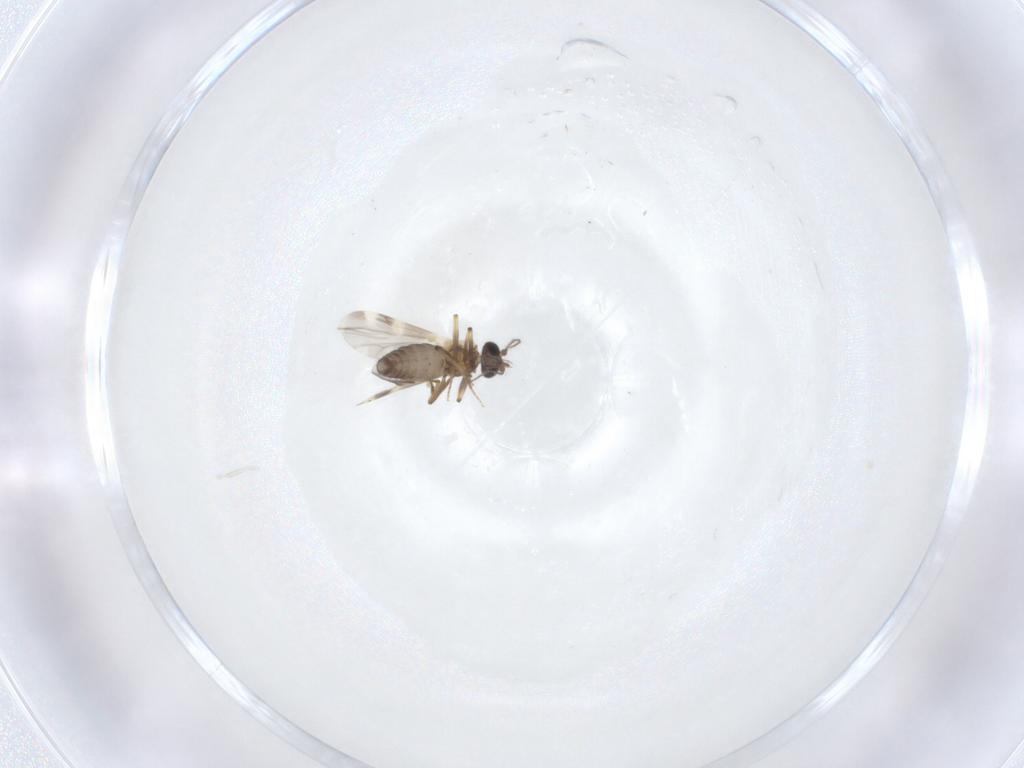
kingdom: Animalia
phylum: Arthropoda
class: Insecta
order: Diptera
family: Ceratopogonidae
